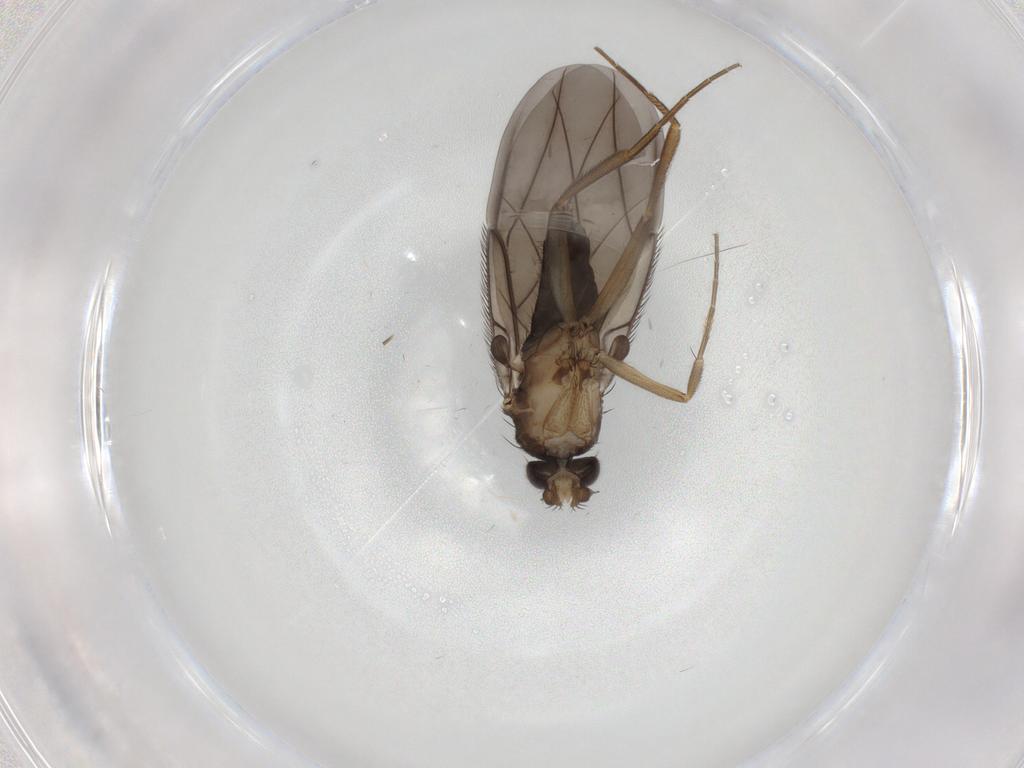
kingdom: Animalia
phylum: Arthropoda
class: Insecta
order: Diptera
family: Phoridae
